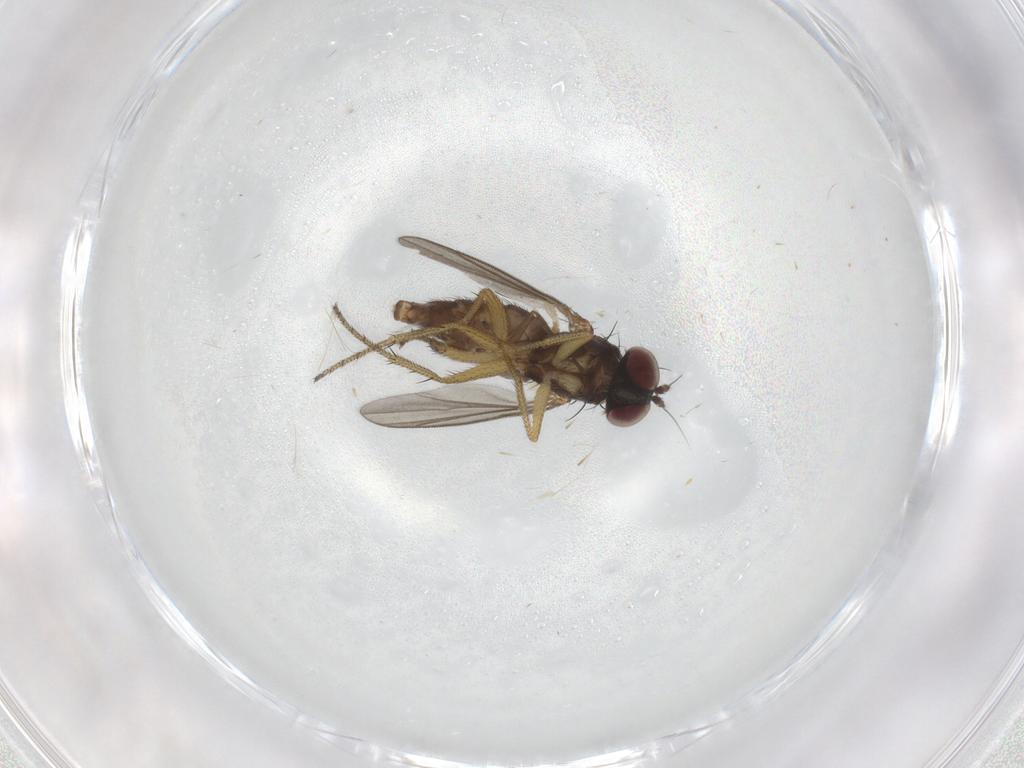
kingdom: Animalia
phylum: Arthropoda
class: Insecta
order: Diptera
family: Dolichopodidae
